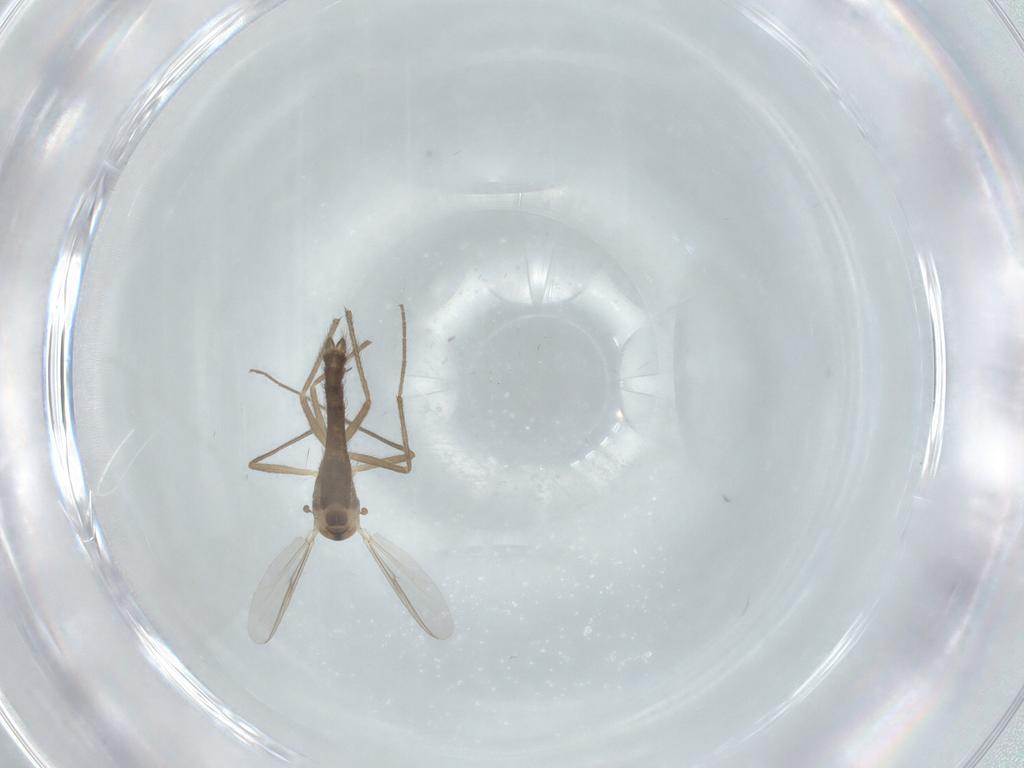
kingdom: Animalia
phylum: Arthropoda
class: Insecta
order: Diptera
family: Chironomidae
